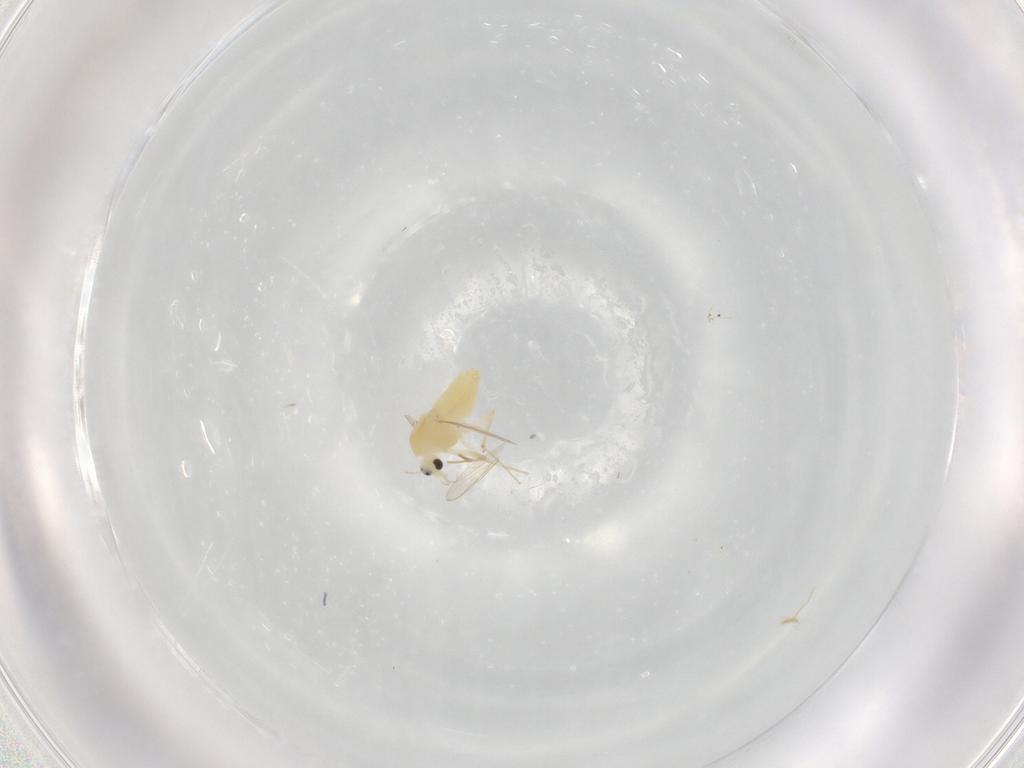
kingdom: Animalia
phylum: Arthropoda
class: Insecta
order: Diptera
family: Chironomidae
